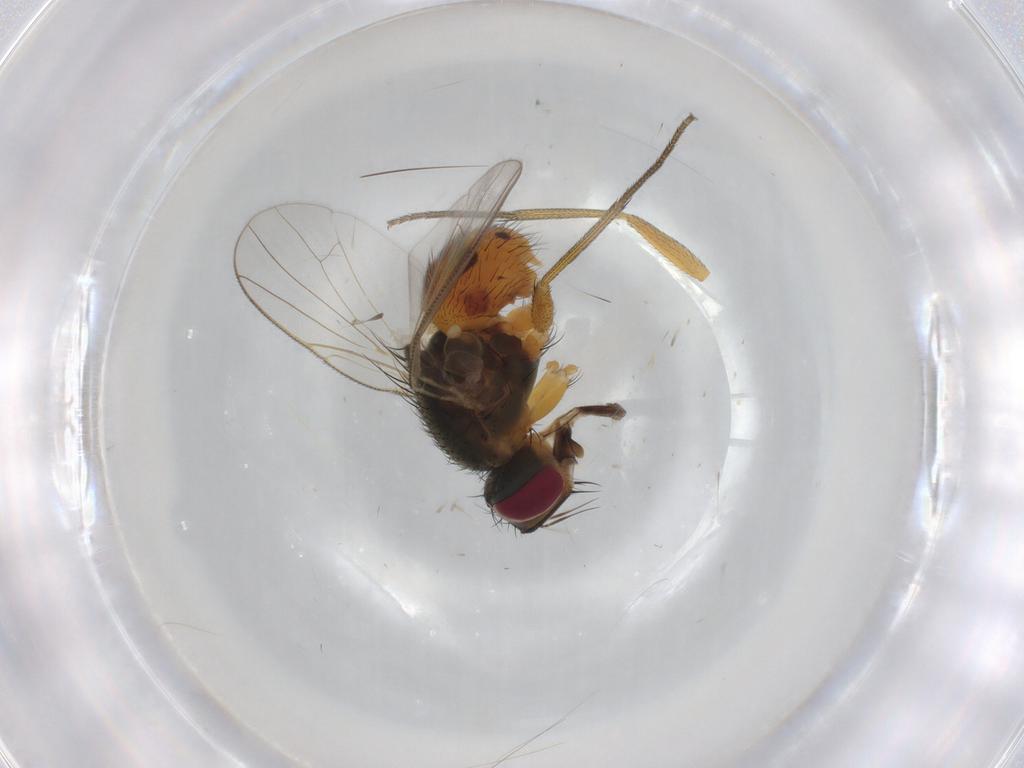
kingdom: Animalia
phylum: Arthropoda
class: Insecta
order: Diptera
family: Muscidae
